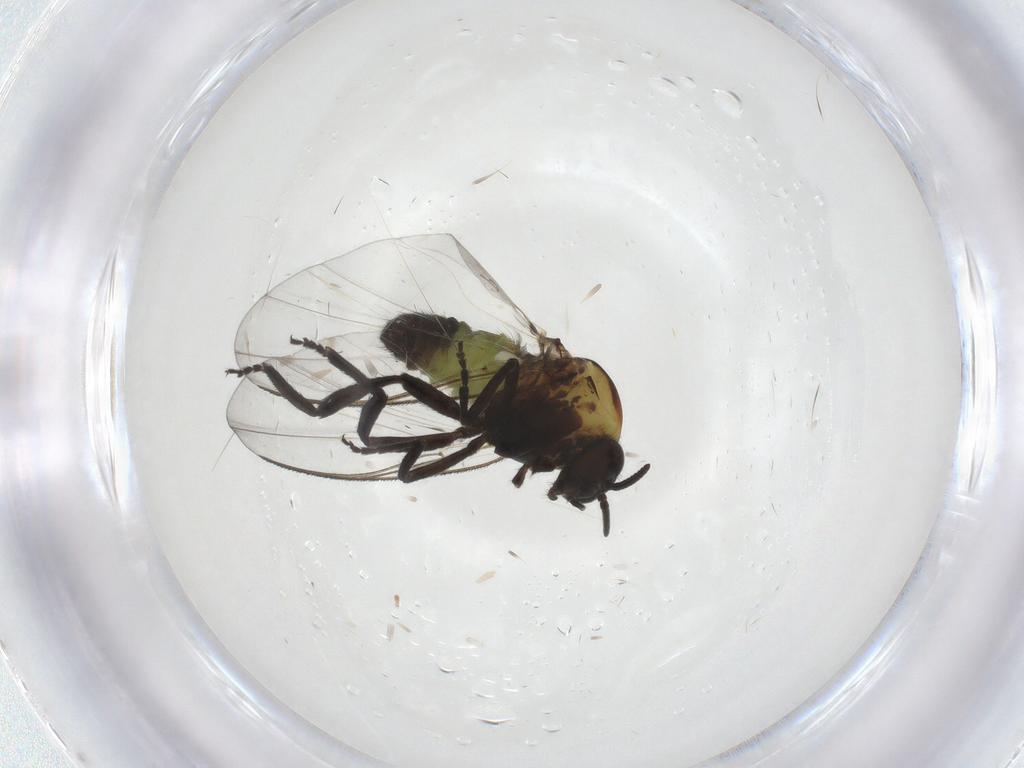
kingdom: Animalia
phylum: Arthropoda
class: Insecta
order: Diptera
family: Simuliidae
